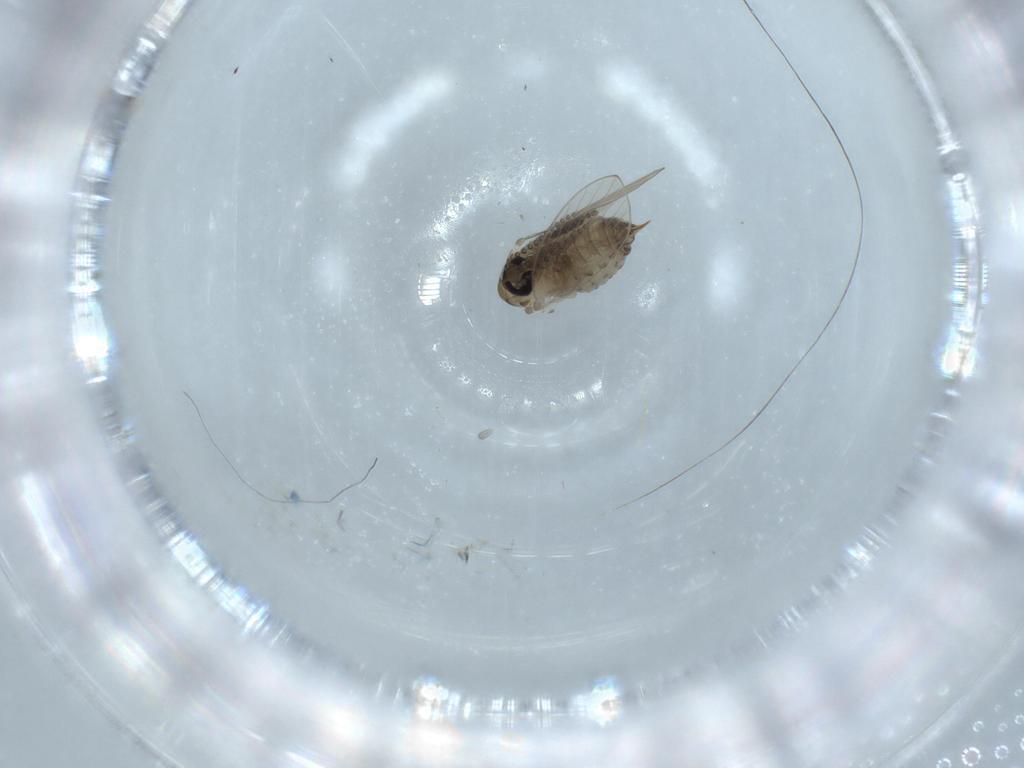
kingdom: Animalia
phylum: Arthropoda
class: Insecta
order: Diptera
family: Psychodidae
